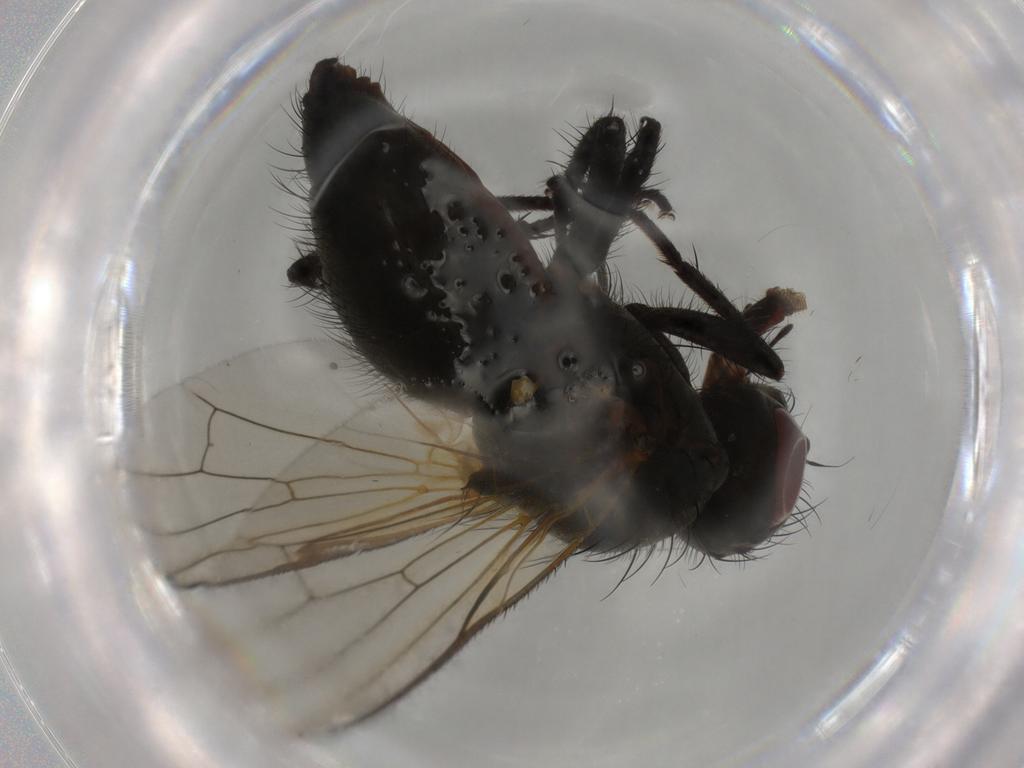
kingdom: Animalia
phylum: Arthropoda
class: Insecta
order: Diptera
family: Anthomyiidae
